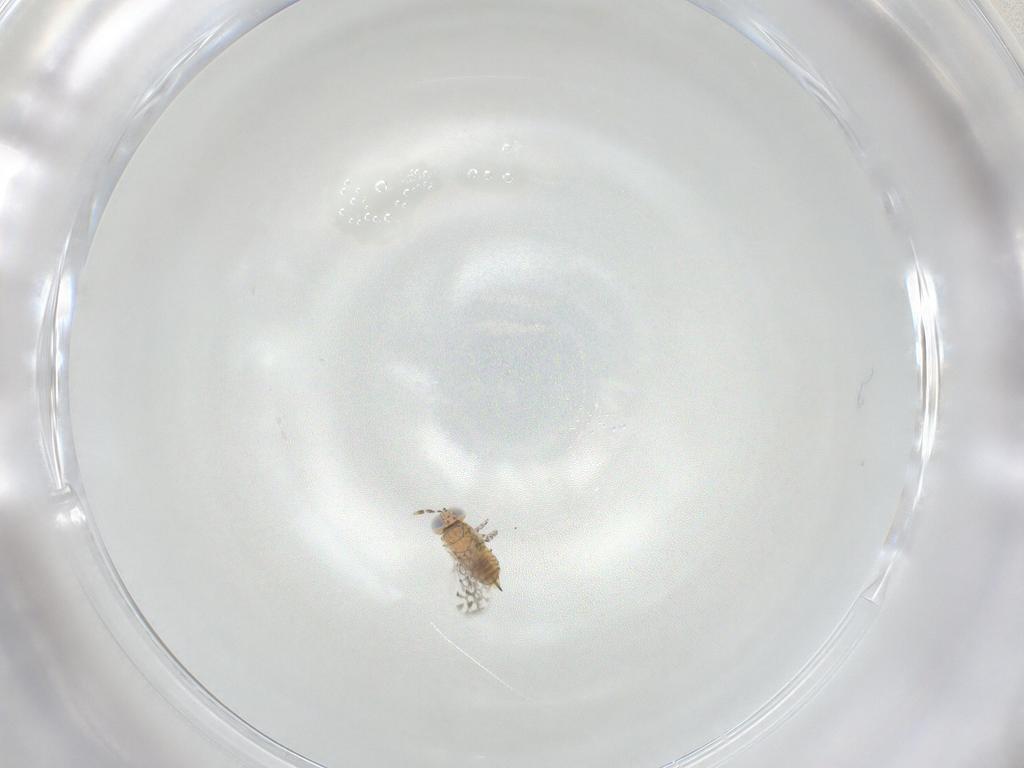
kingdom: Animalia
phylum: Arthropoda
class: Insecta
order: Hymenoptera
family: Aphelinidae
